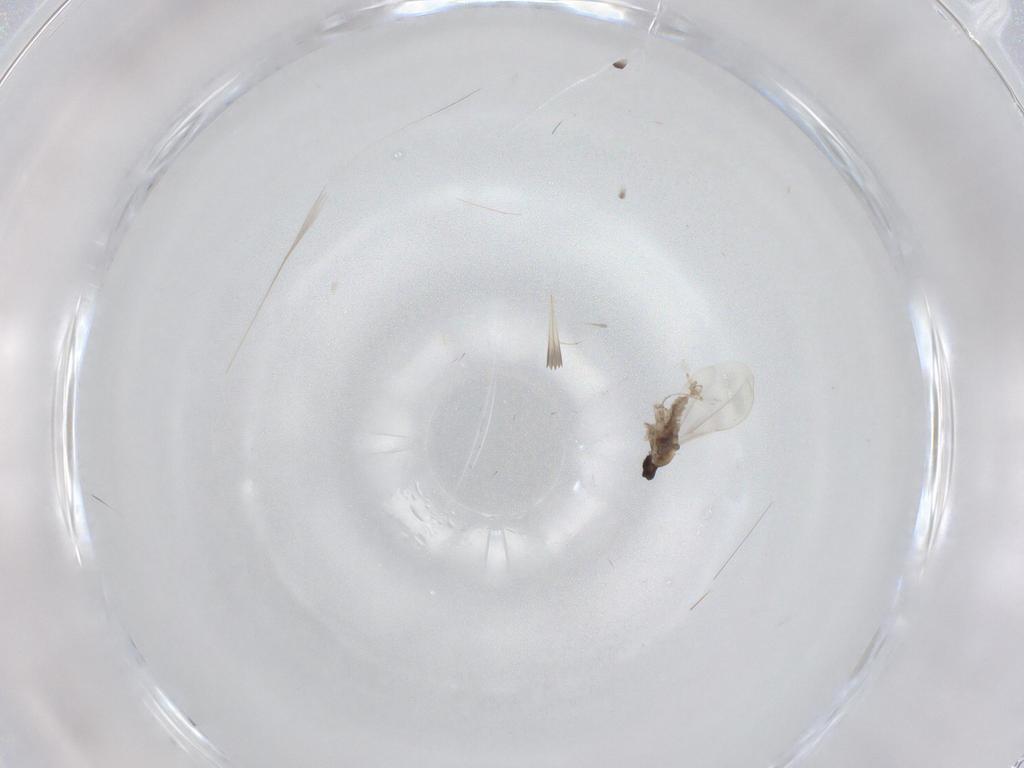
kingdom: Animalia
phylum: Arthropoda
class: Insecta
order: Diptera
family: Cecidomyiidae
